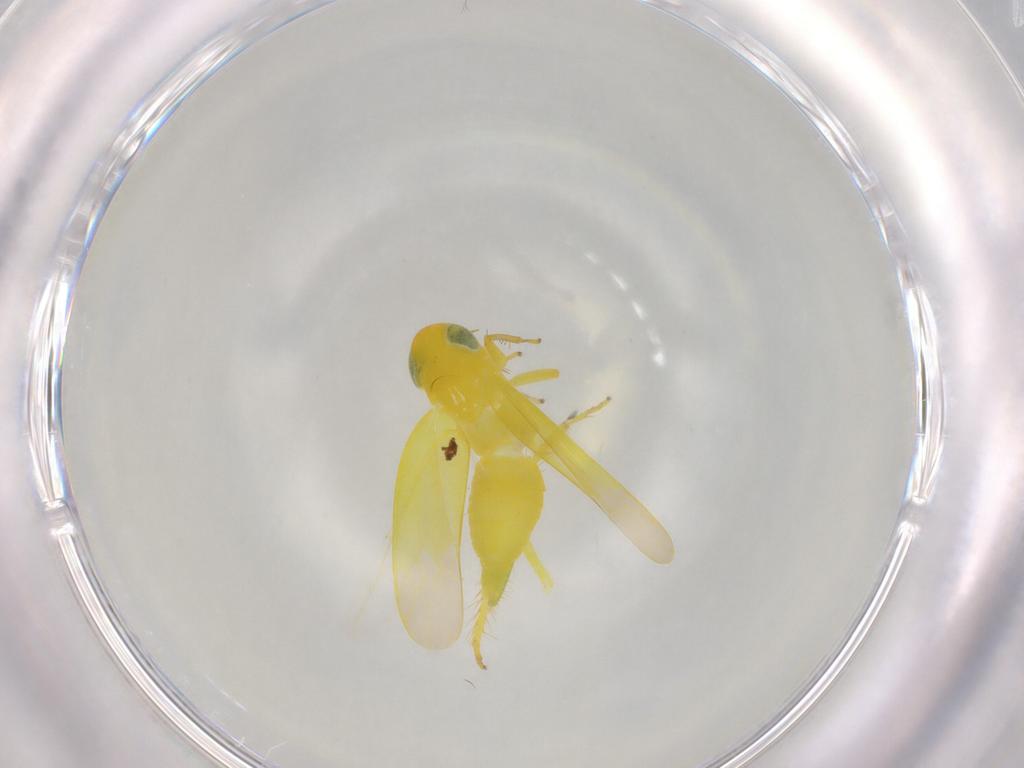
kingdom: Animalia
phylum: Arthropoda
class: Insecta
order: Hemiptera
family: Cicadellidae
